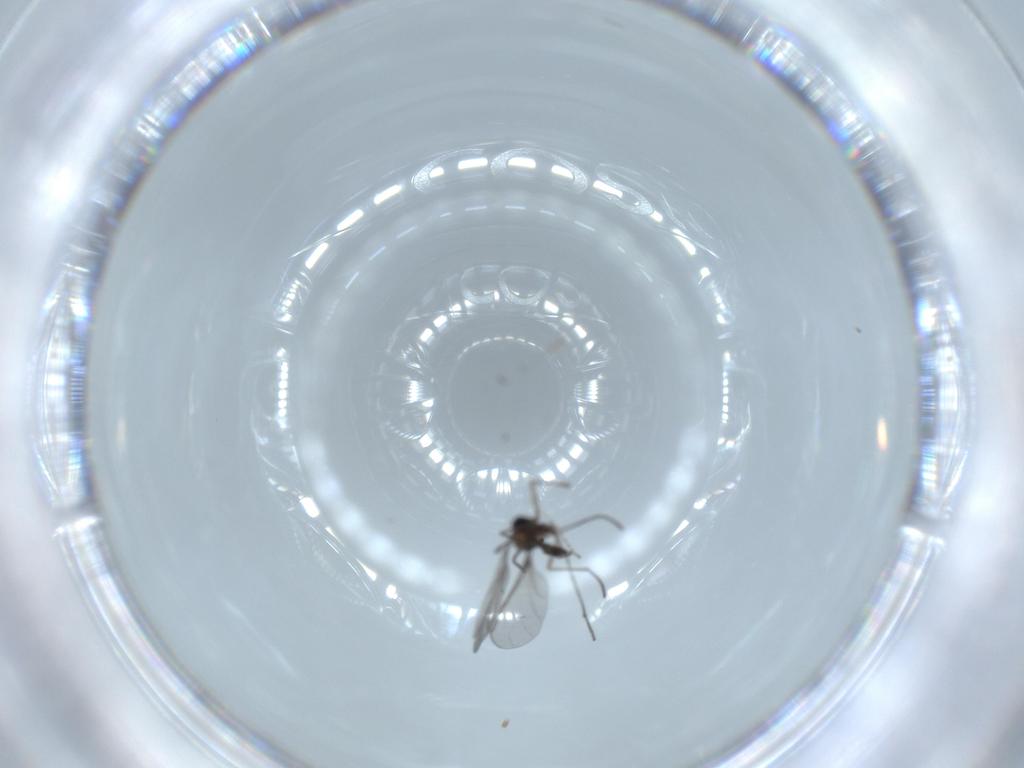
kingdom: Animalia
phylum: Arthropoda
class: Insecta
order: Diptera
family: Sciaridae
